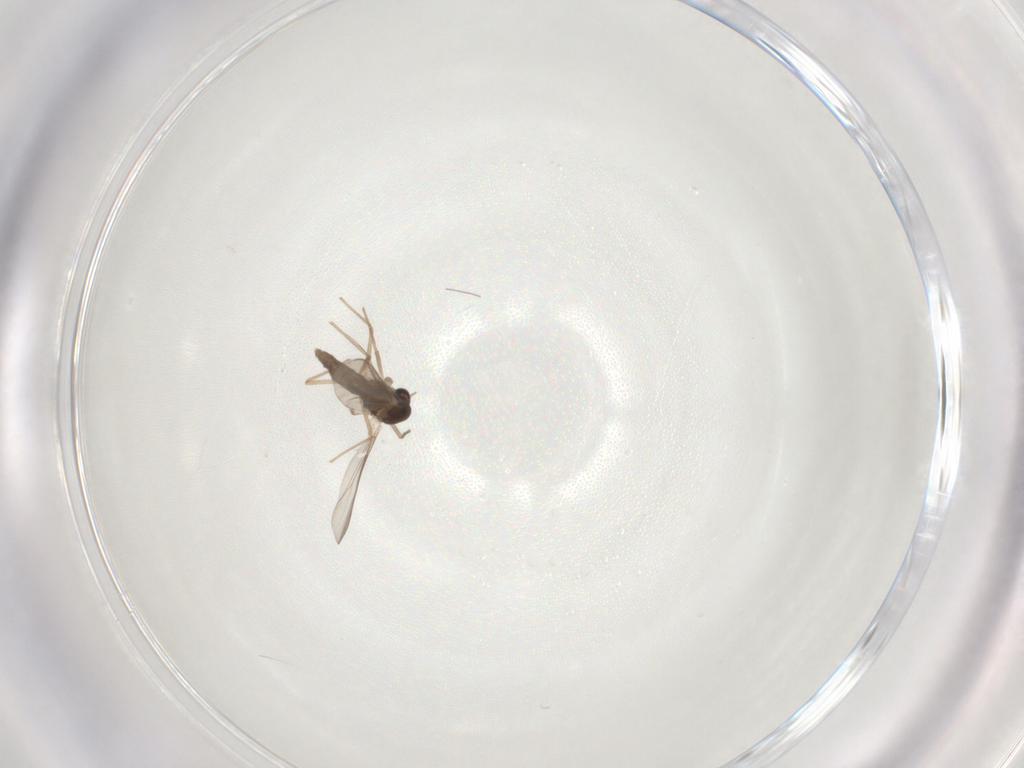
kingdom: Animalia
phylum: Arthropoda
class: Insecta
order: Diptera
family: Chironomidae
